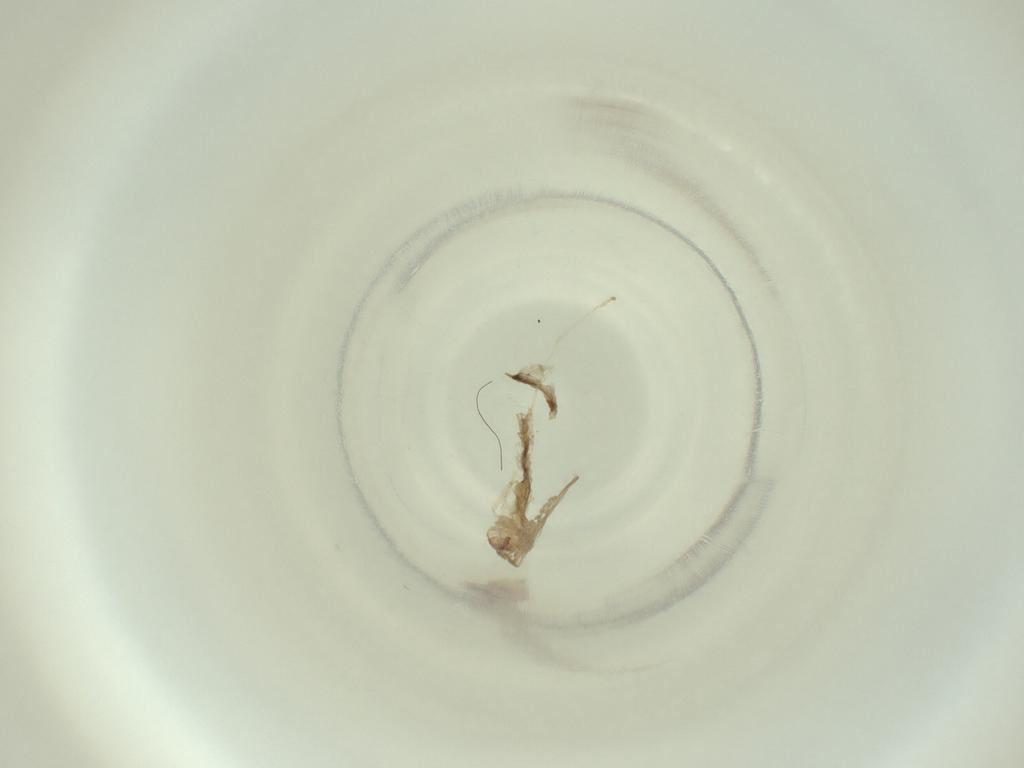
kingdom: Animalia
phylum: Arthropoda
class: Insecta
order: Diptera
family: Cecidomyiidae
